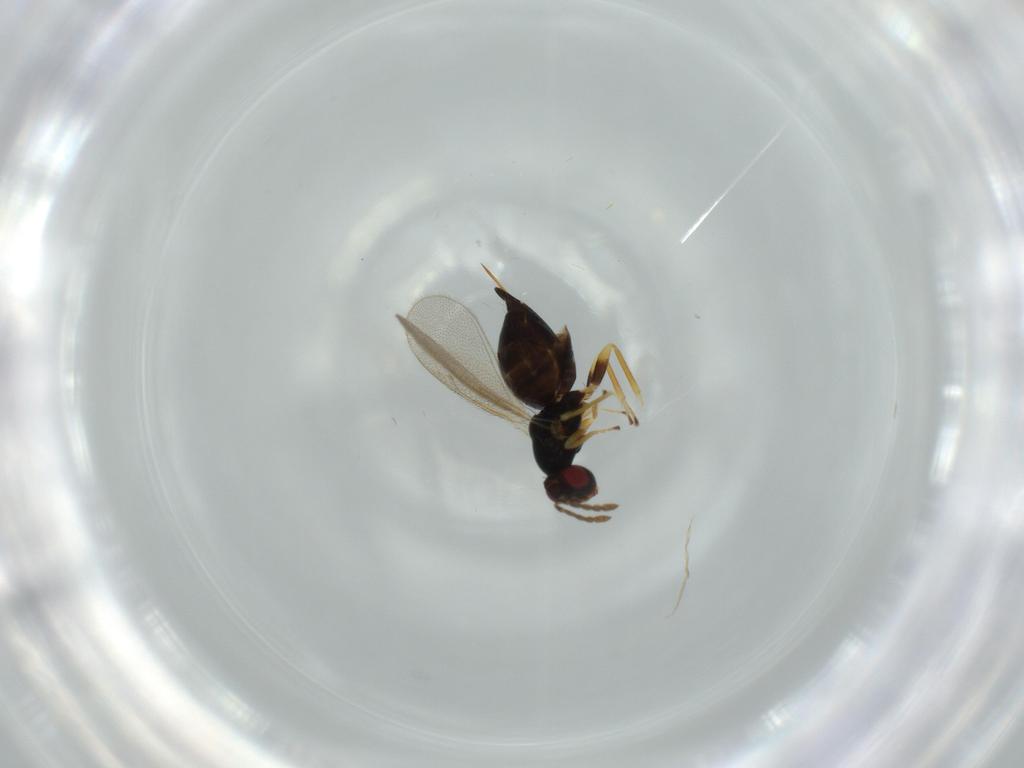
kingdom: Animalia
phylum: Arthropoda
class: Insecta
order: Hymenoptera
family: Eulophidae
